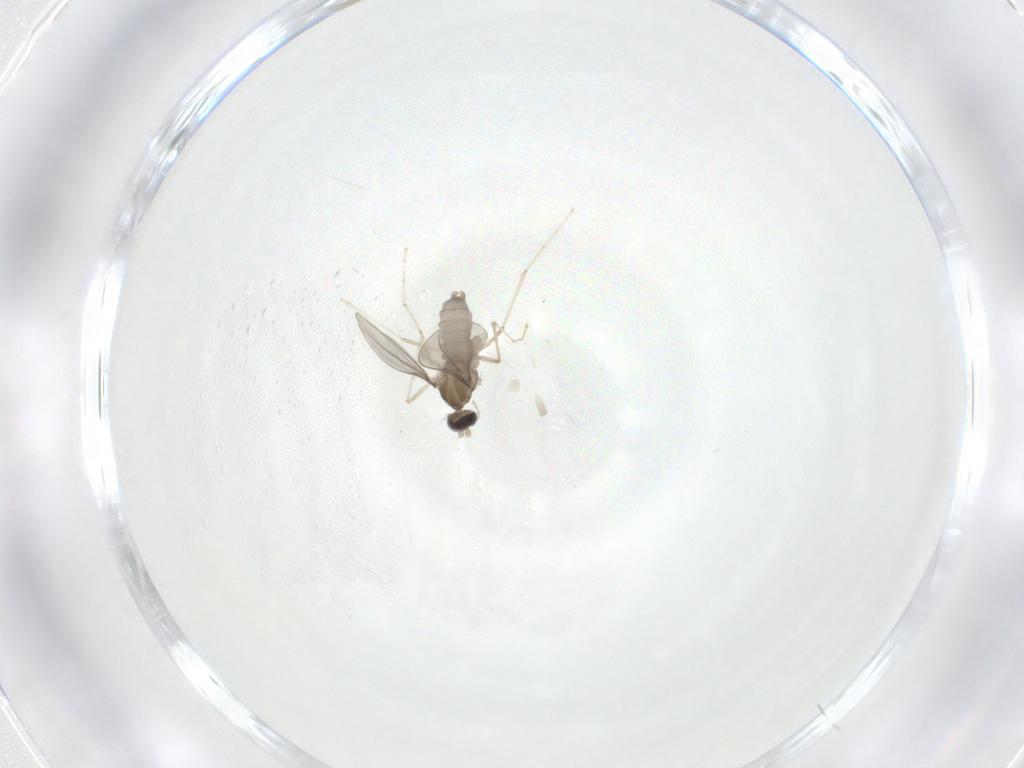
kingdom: Animalia
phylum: Arthropoda
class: Insecta
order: Diptera
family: Cecidomyiidae
